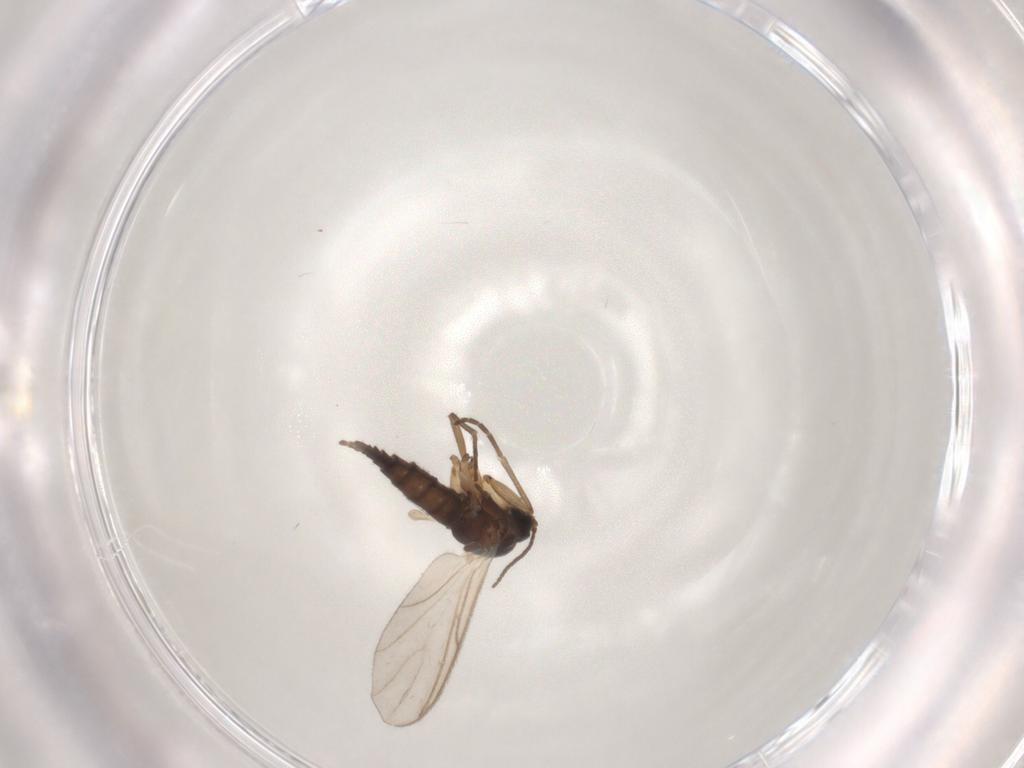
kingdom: Animalia
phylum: Arthropoda
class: Insecta
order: Diptera
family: Sciaridae
